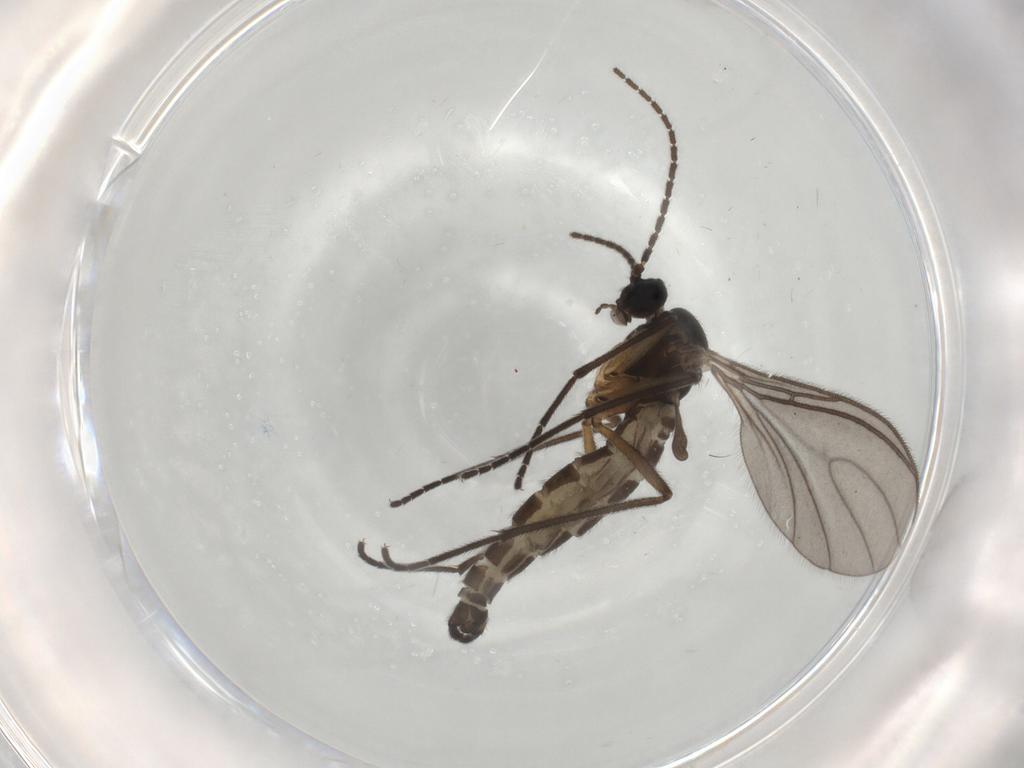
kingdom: Animalia
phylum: Arthropoda
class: Insecta
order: Diptera
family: Sciaridae
